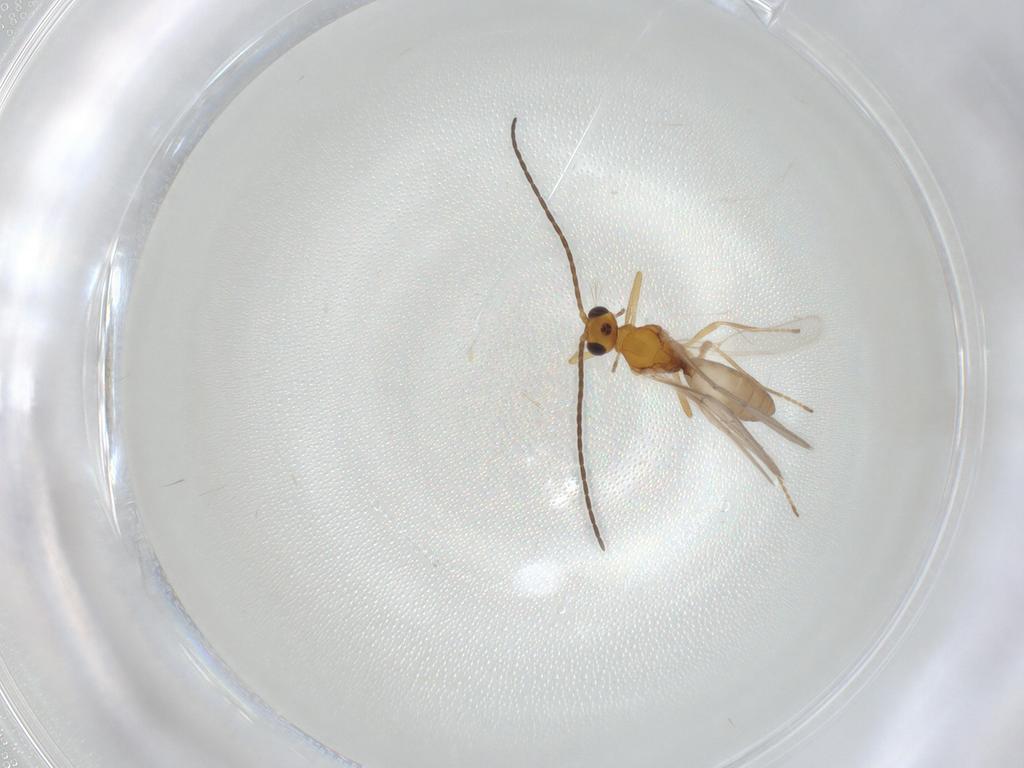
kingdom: Animalia
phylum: Arthropoda
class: Insecta
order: Hymenoptera
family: Braconidae
